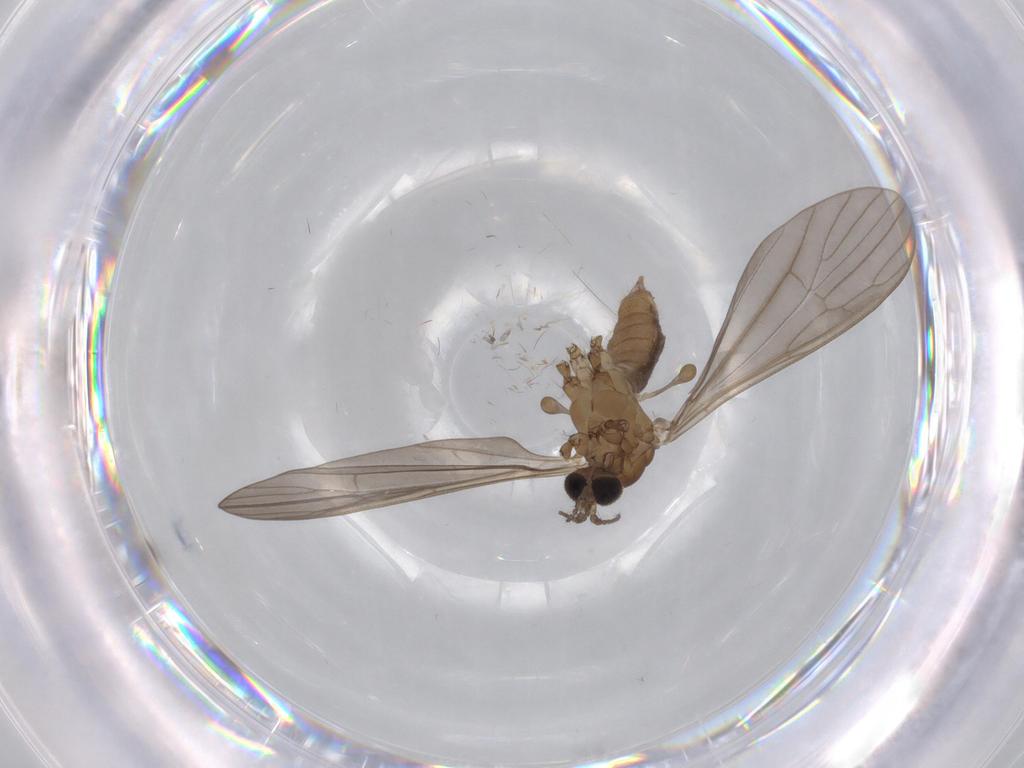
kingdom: Animalia
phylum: Arthropoda
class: Insecta
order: Diptera
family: Limoniidae
